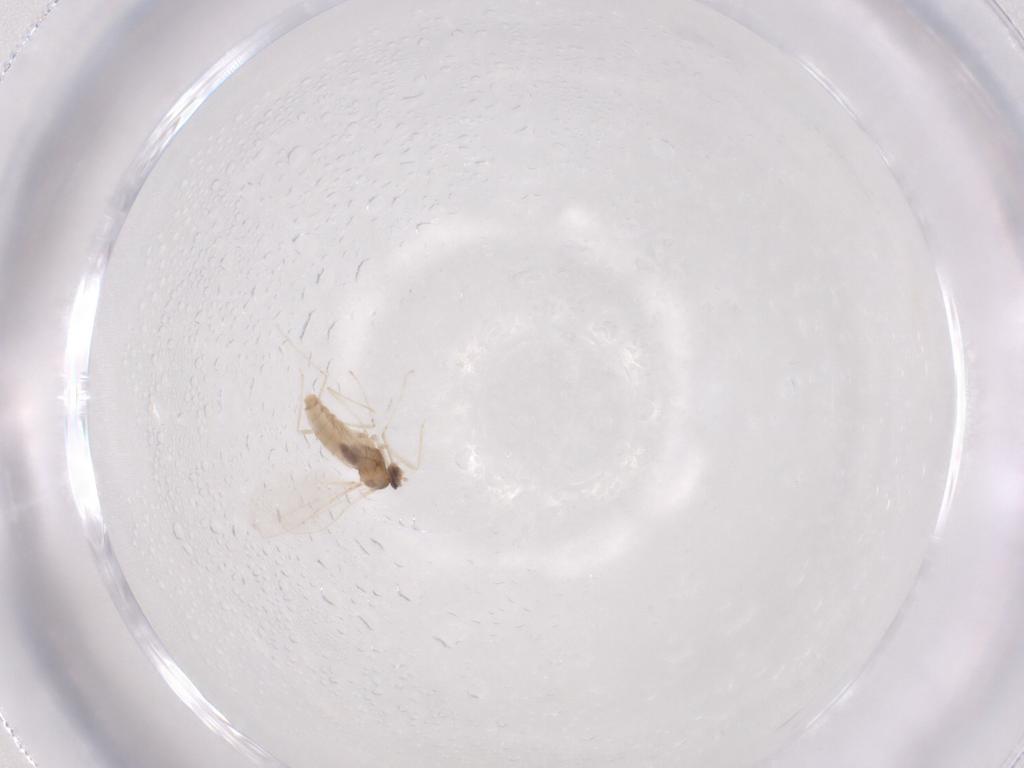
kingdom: Animalia
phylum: Arthropoda
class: Insecta
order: Diptera
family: Cecidomyiidae
